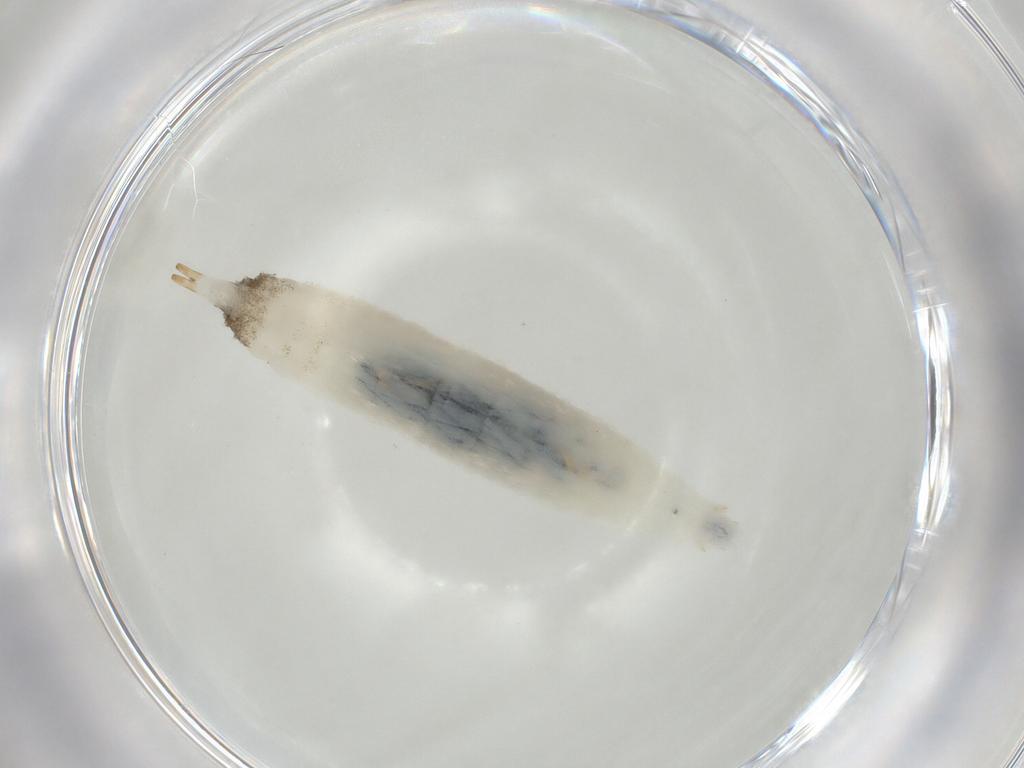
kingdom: Animalia
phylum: Arthropoda
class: Insecta
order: Diptera
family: Drosophilidae
